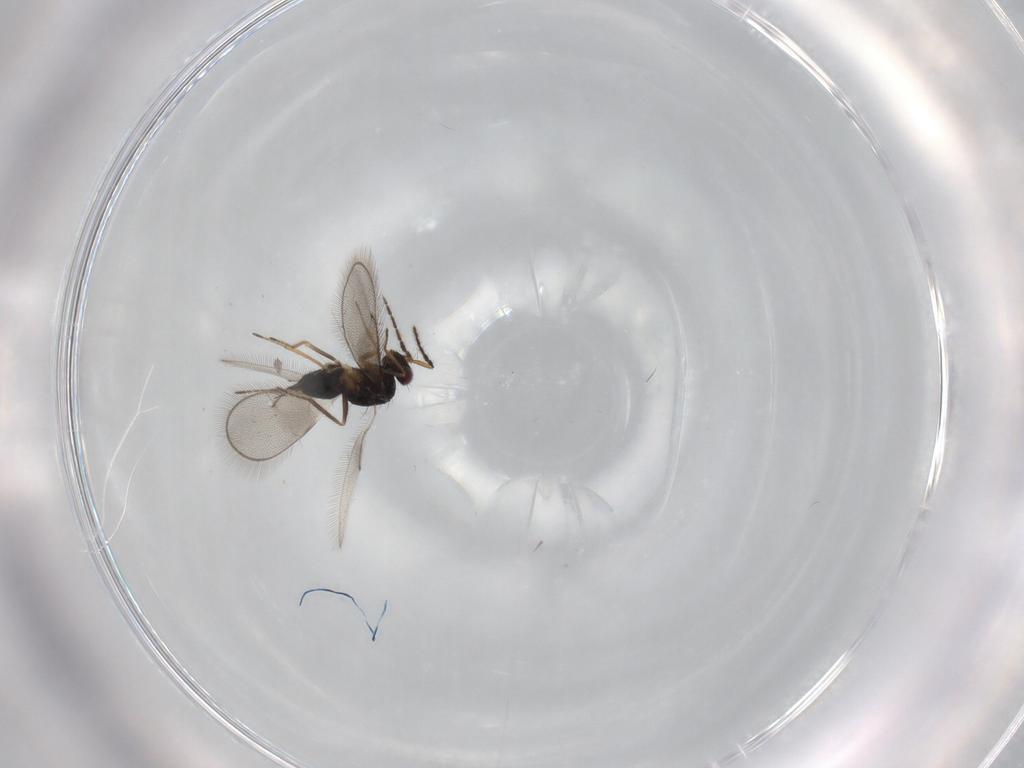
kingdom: Animalia
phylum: Arthropoda
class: Insecta
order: Hymenoptera
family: Eulophidae
